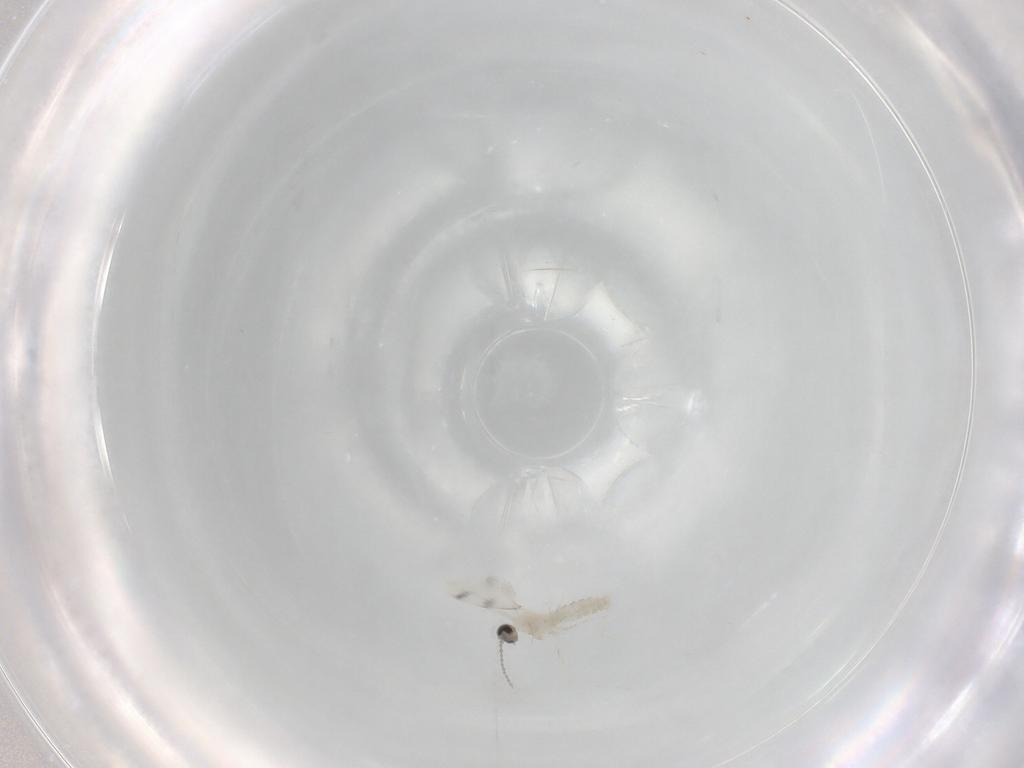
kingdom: Animalia
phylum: Arthropoda
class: Insecta
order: Diptera
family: Cecidomyiidae
